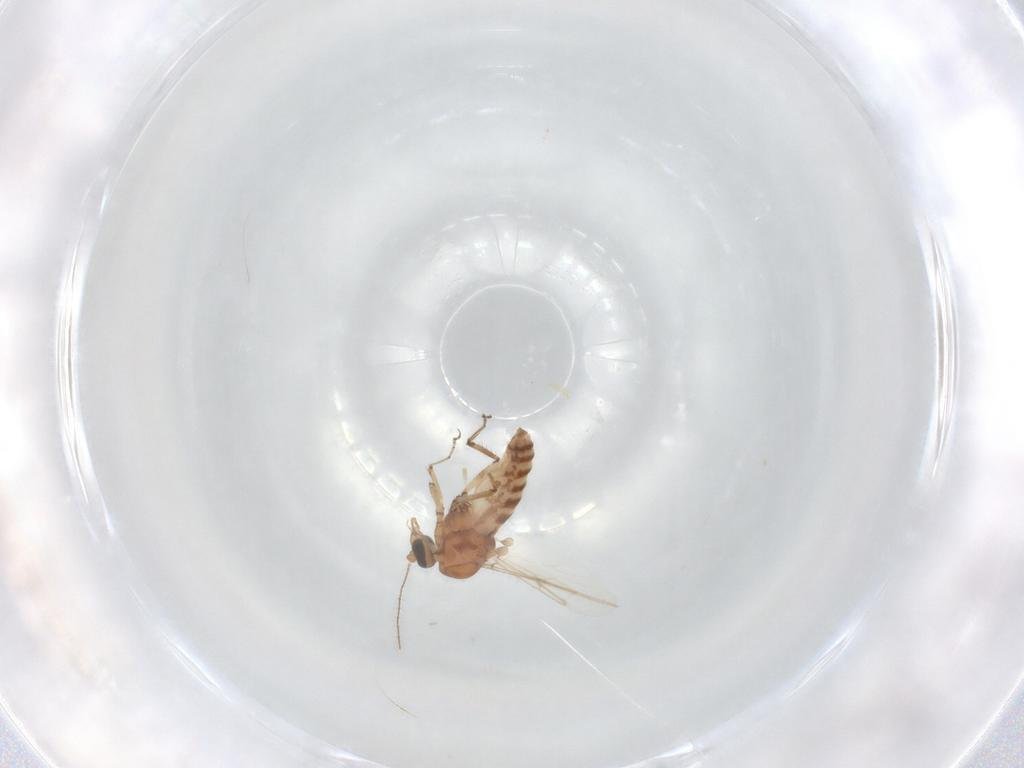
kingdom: Animalia
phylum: Arthropoda
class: Insecta
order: Diptera
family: Ceratopogonidae
